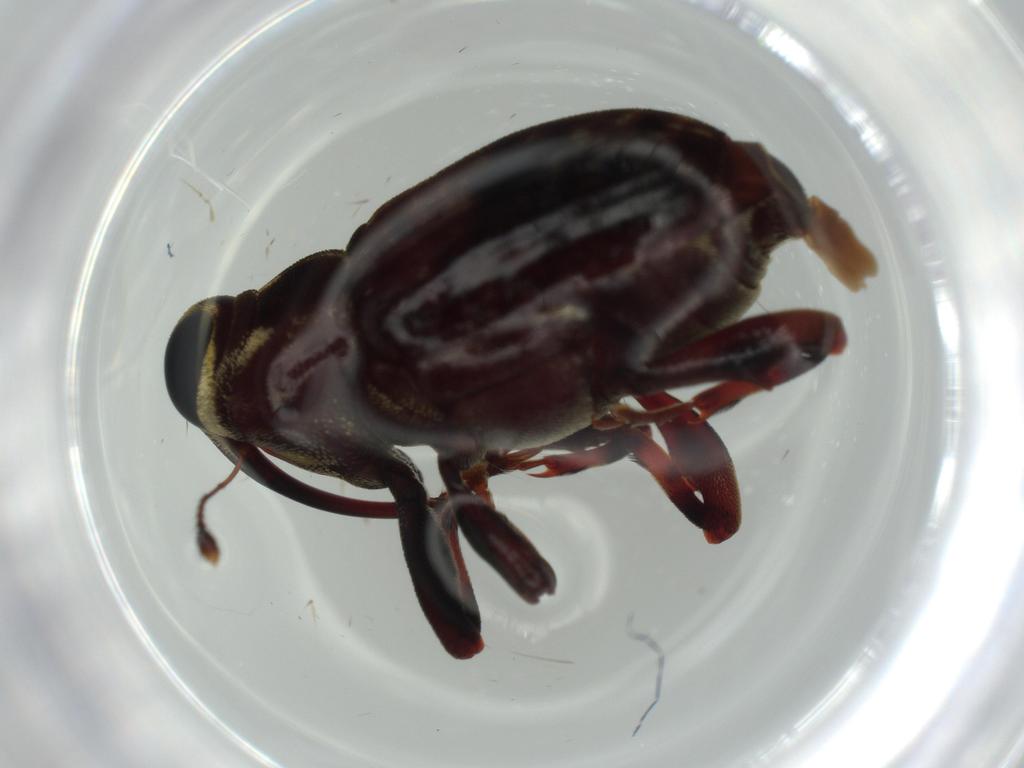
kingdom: Animalia
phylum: Arthropoda
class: Insecta
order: Coleoptera
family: Curculionidae
